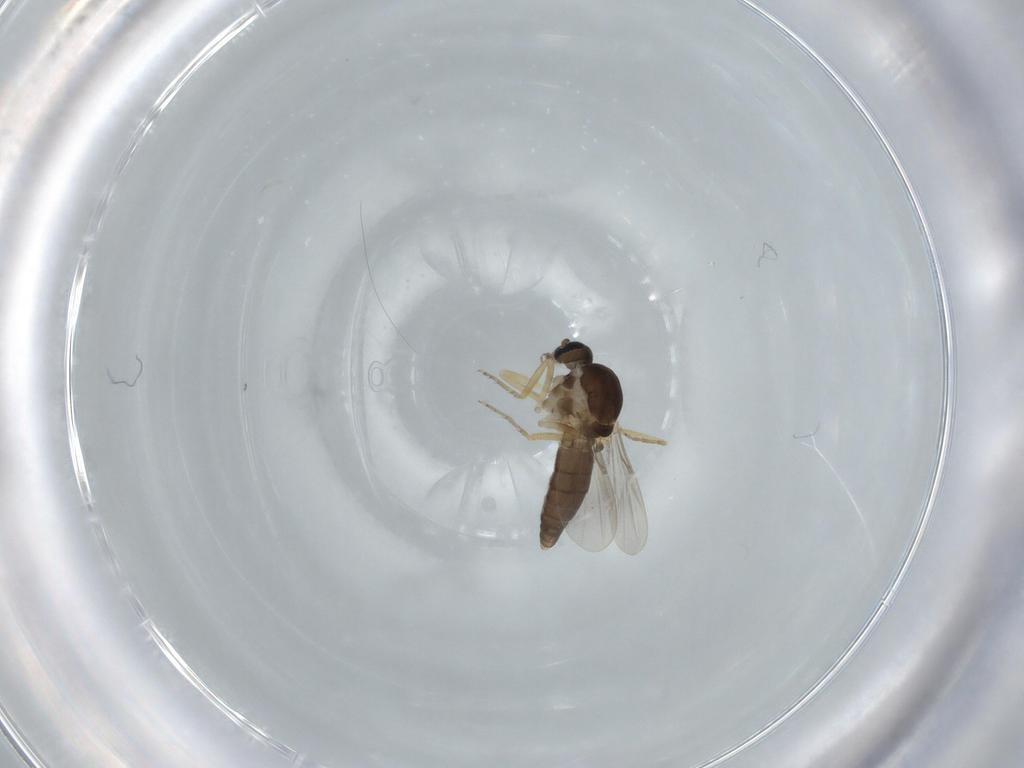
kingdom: Animalia
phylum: Arthropoda
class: Insecta
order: Diptera
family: Ceratopogonidae
